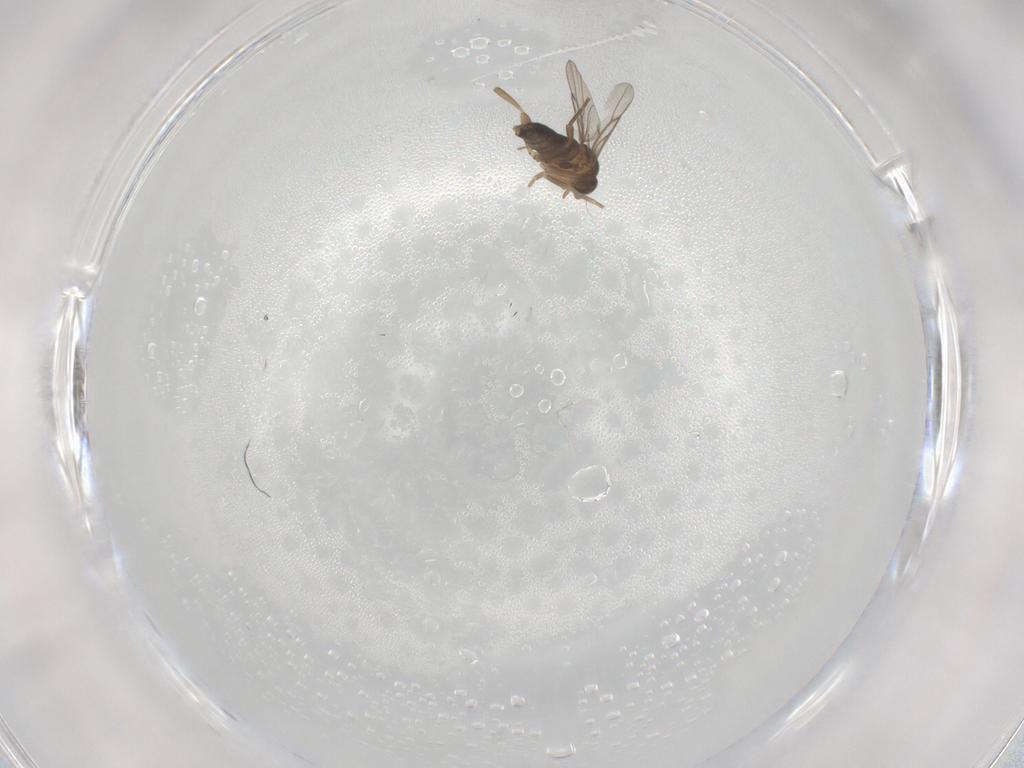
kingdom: Animalia
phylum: Arthropoda
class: Insecta
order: Diptera
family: Phoridae
